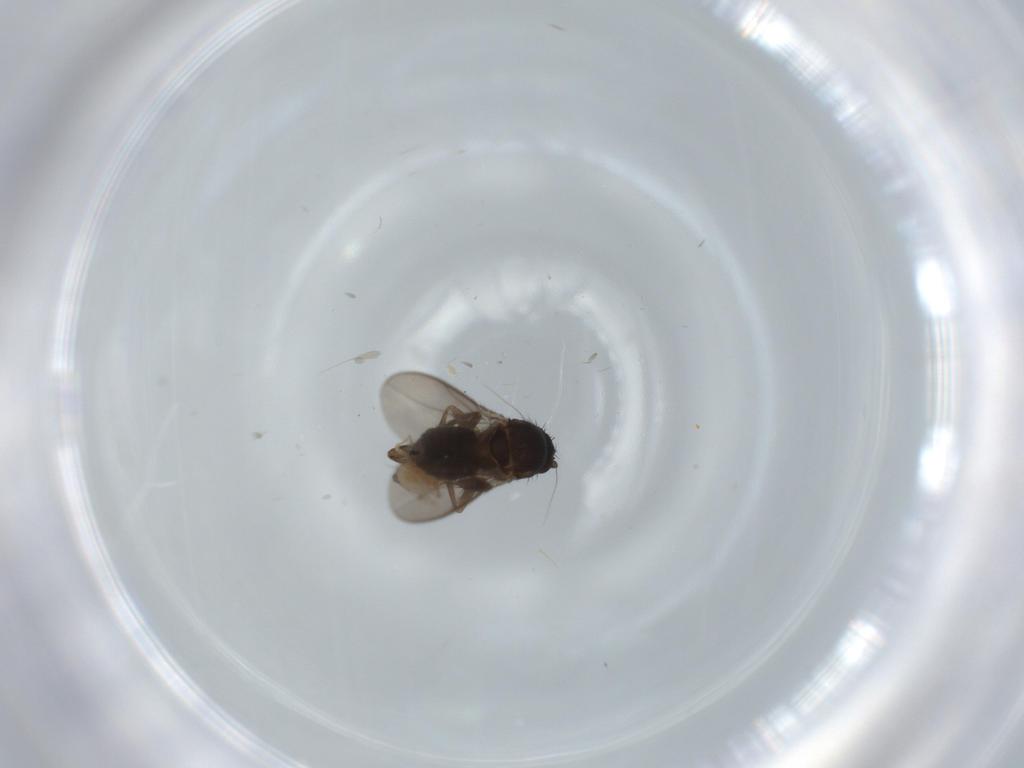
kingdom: Animalia
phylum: Arthropoda
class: Insecta
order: Diptera
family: Sphaeroceridae
